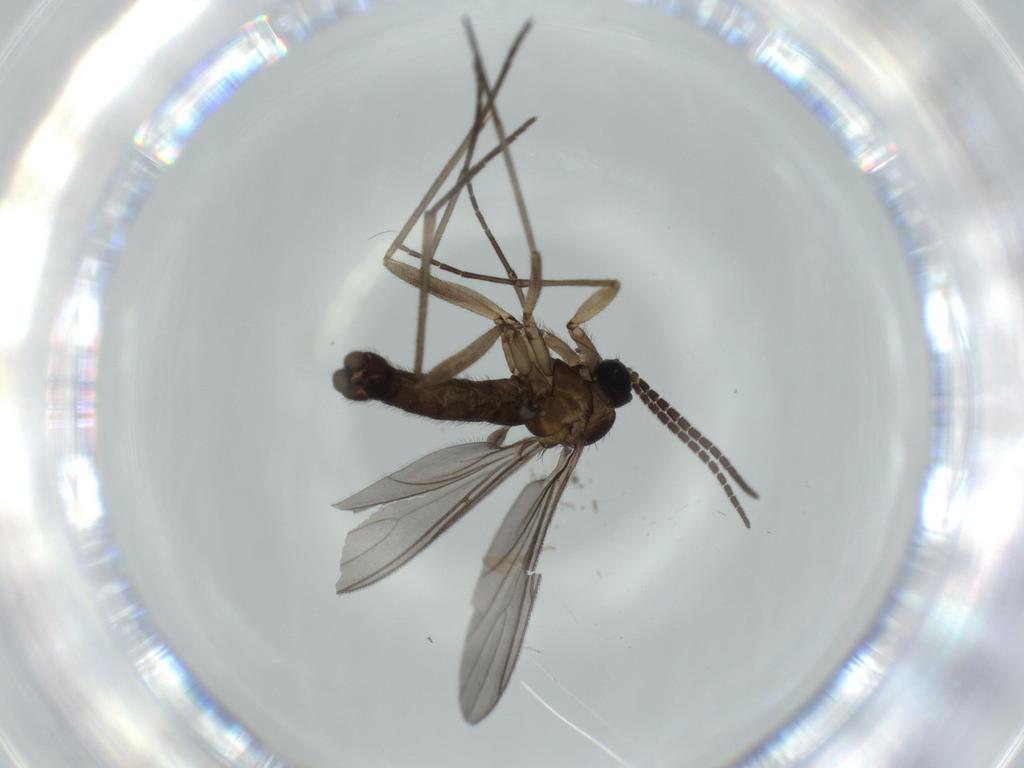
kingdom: Animalia
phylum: Arthropoda
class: Insecta
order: Diptera
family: Sciaridae
